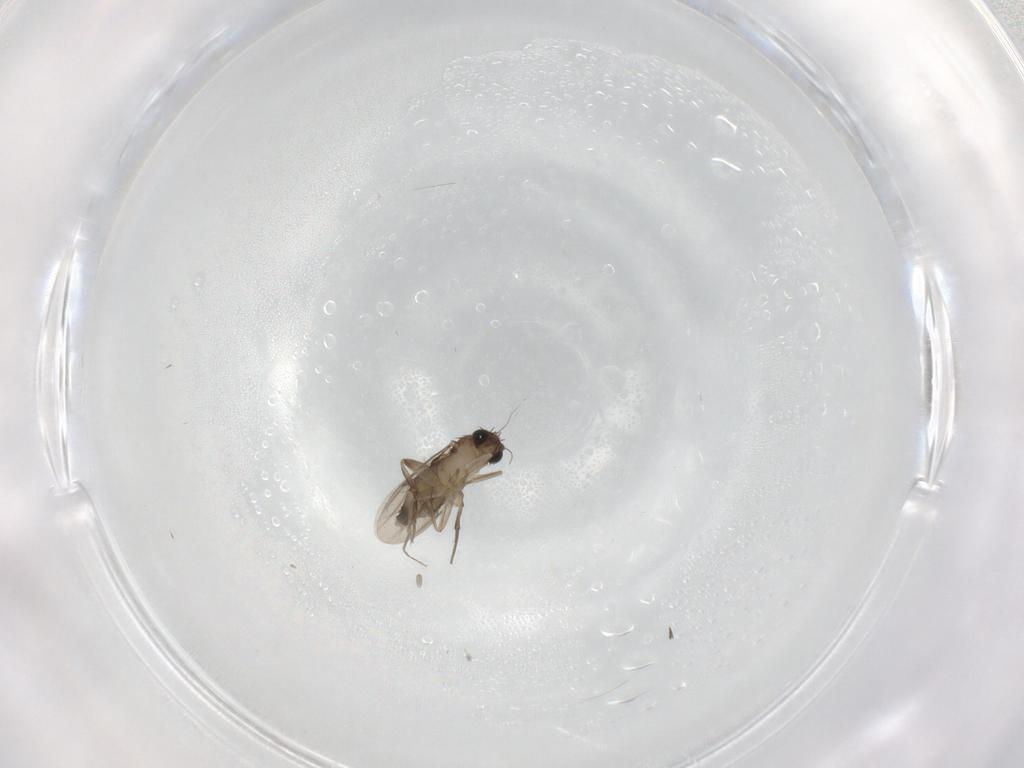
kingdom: Animalia
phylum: Arthropoda
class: Insecta
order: Diptera
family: Phoridae
